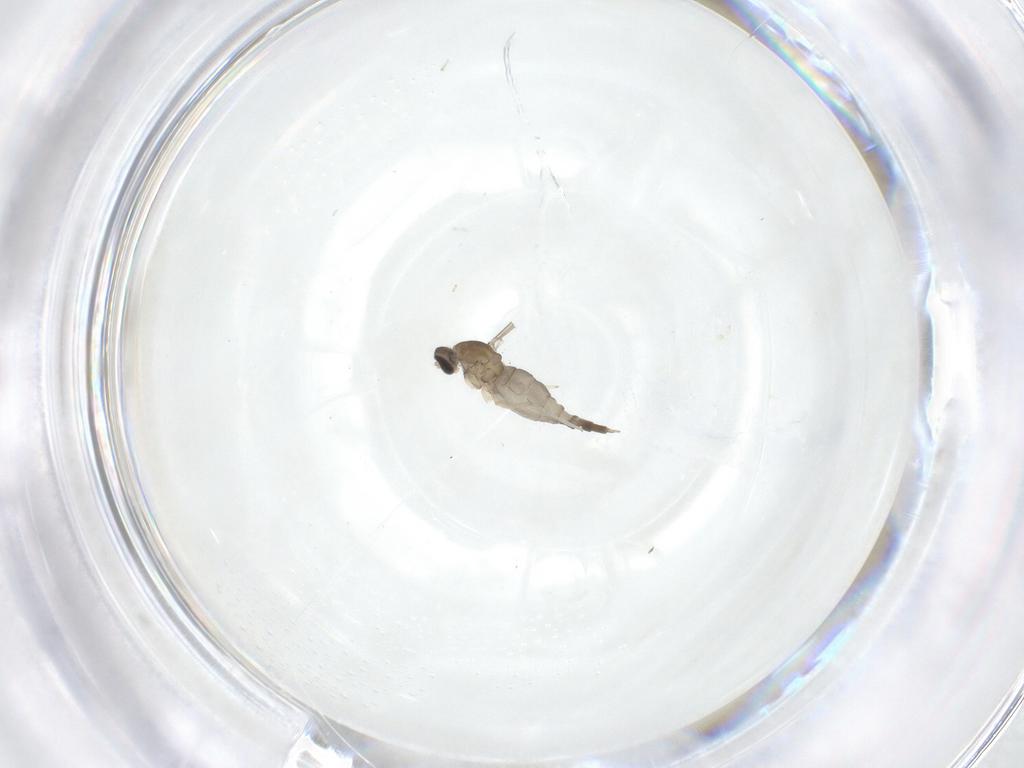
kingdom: Animalia
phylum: Arthropoda
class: Insecta
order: Diptera
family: Cecidomyiidae
